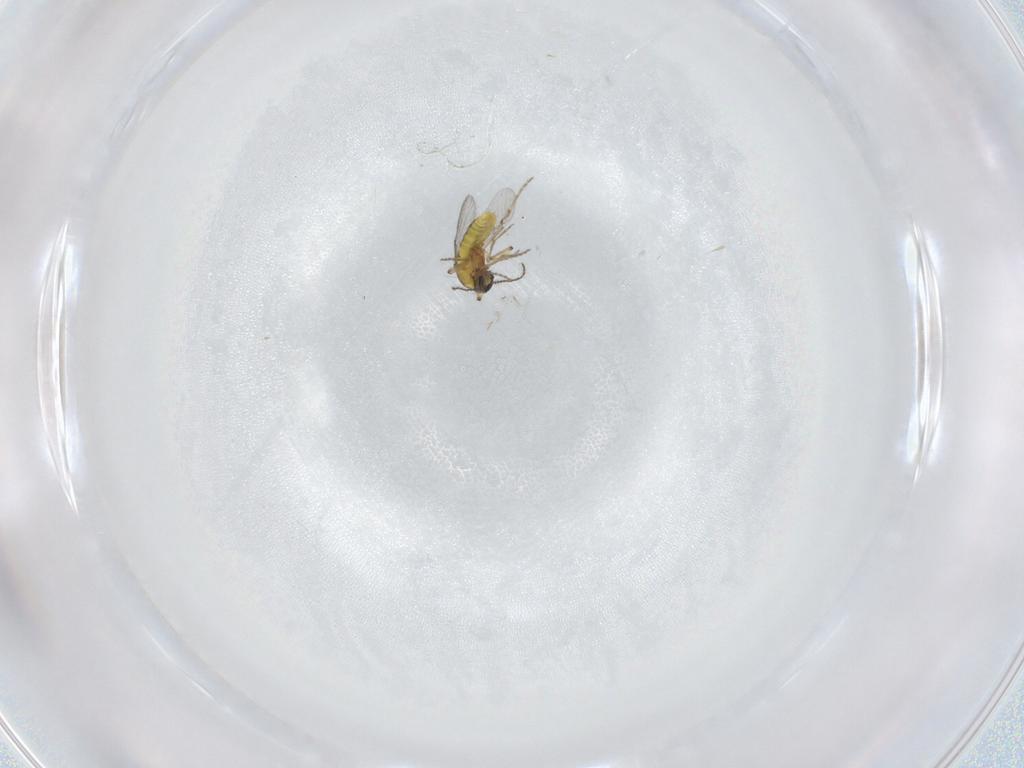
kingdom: Animalia
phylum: Arthropoda
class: Insecta
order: Diptera
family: Ceratopogonidae
